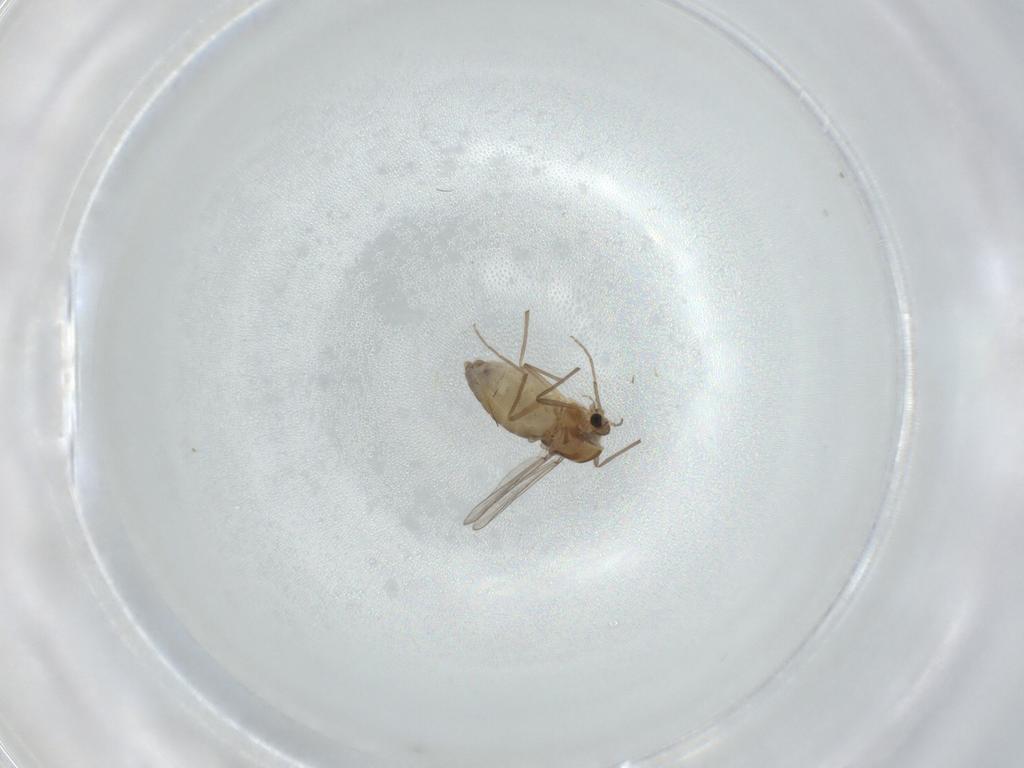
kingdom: Animalia
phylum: Arthropoda
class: Insecta
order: Diptera
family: Chironomidae
